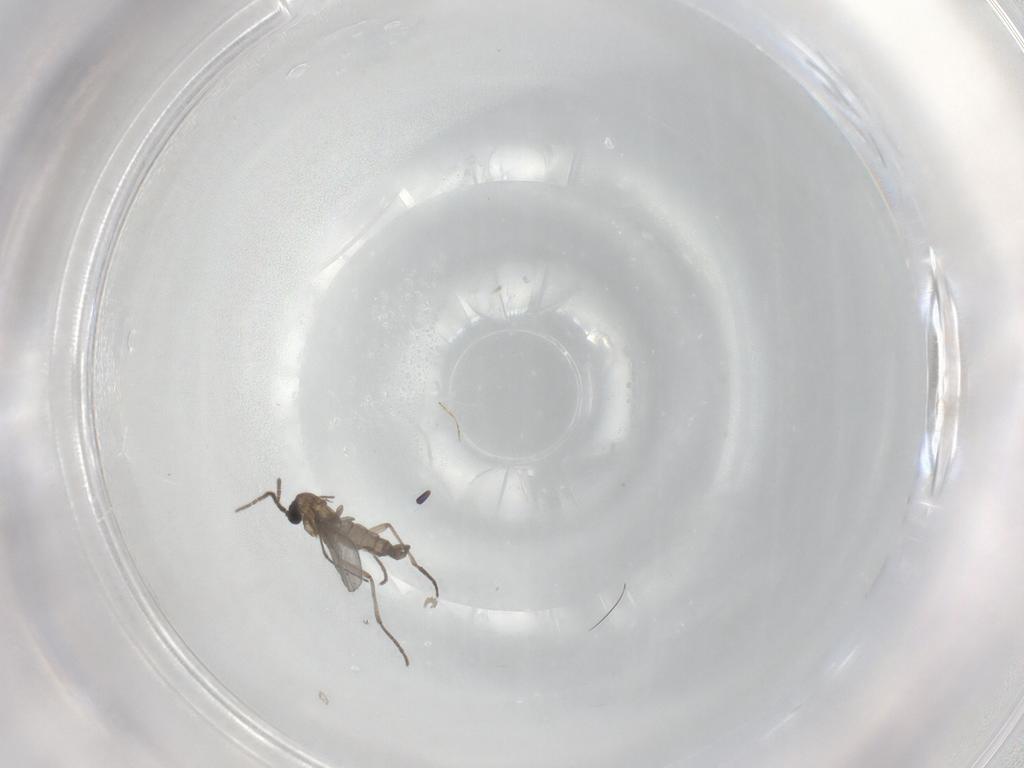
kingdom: Animalia
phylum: Arthropoda
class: Insecta
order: Diptera
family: Sciaridae
